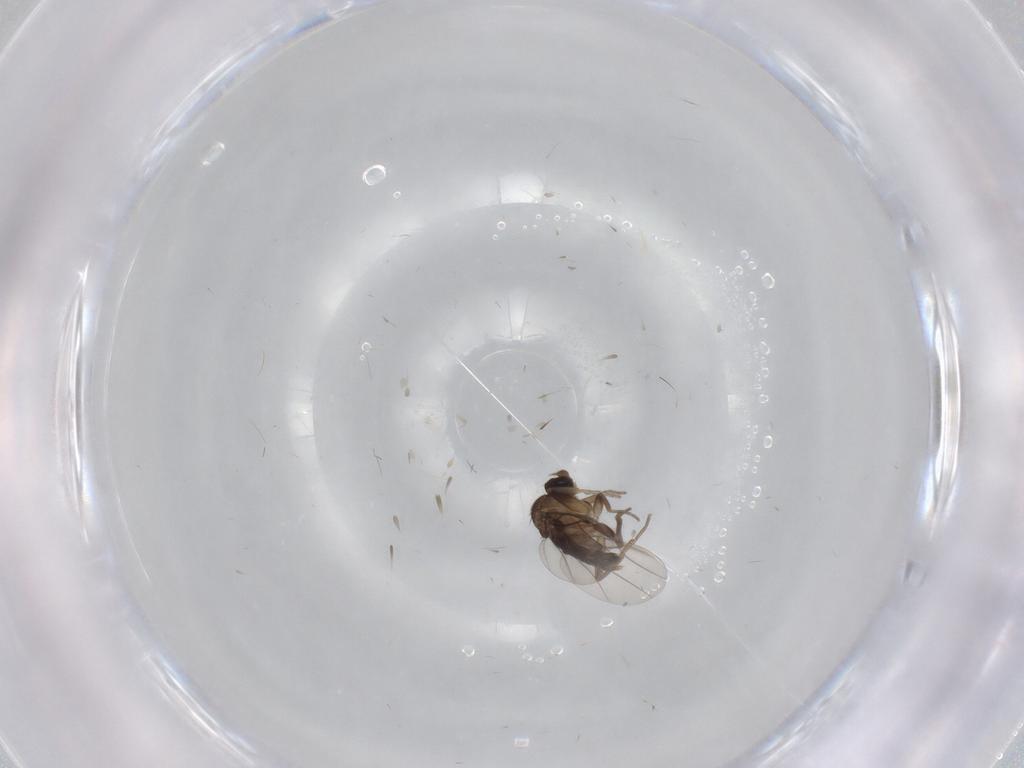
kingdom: Animalia
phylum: Arthropoda
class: Insecta
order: Diptera
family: Phoridae
